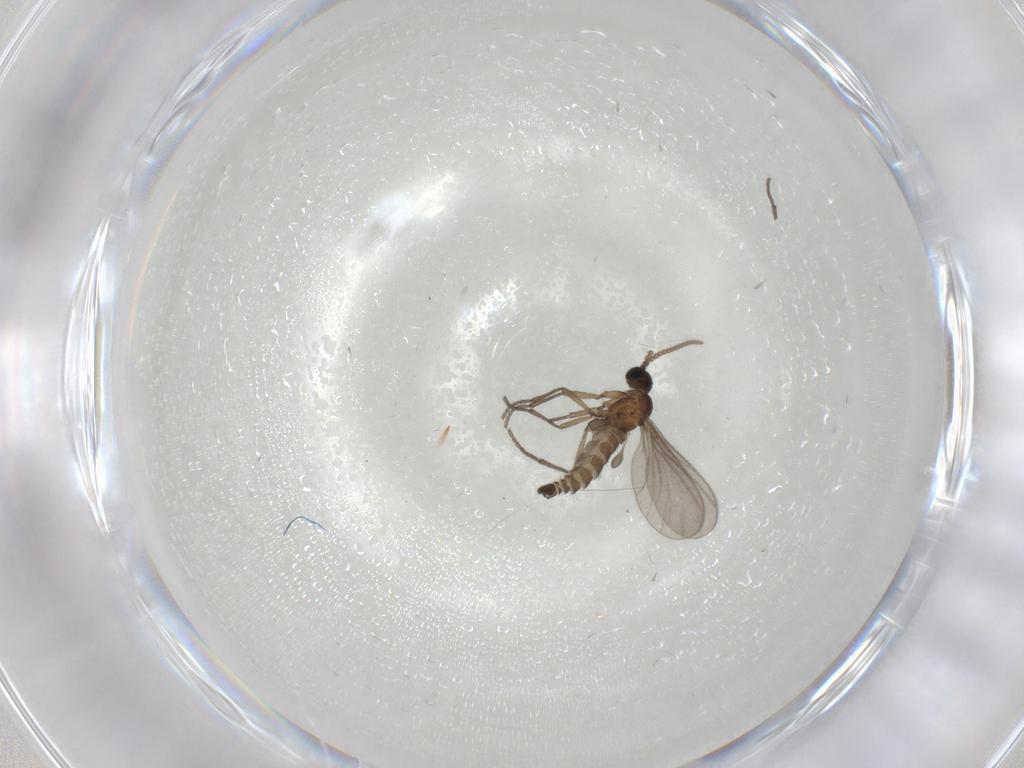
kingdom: Animalia
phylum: Arthropoda
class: Insecta
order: Diptera
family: Sciaridae
